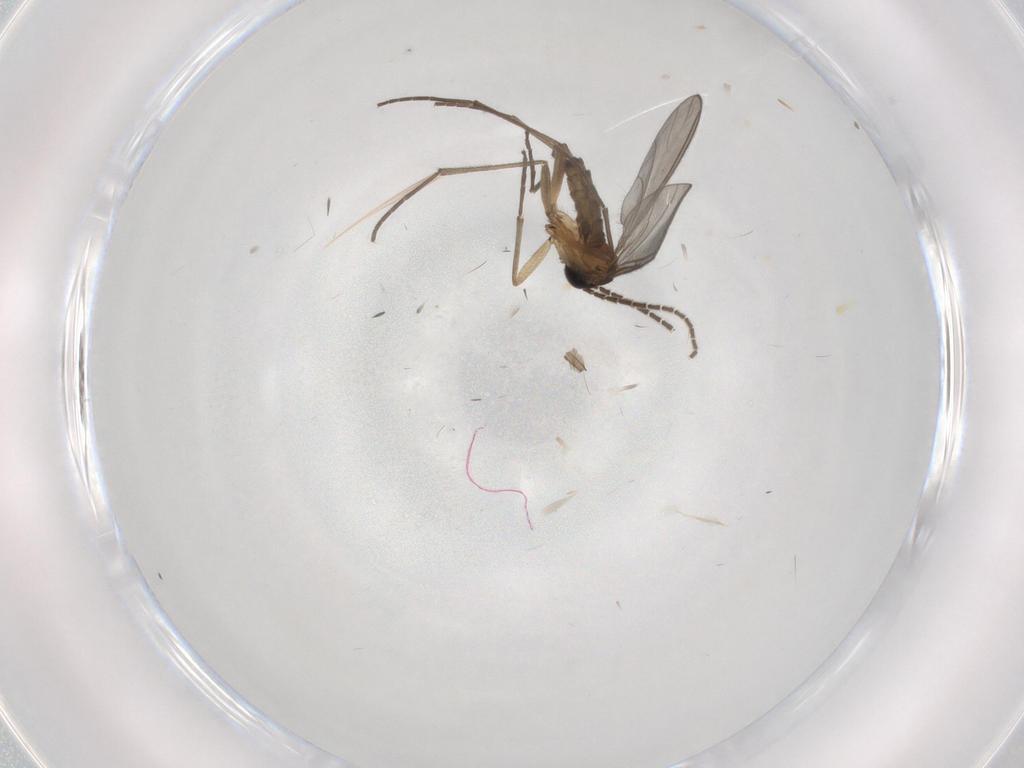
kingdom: Animalia
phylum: Arthropoda
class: Insecta
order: Diptera
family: Sciaridae
